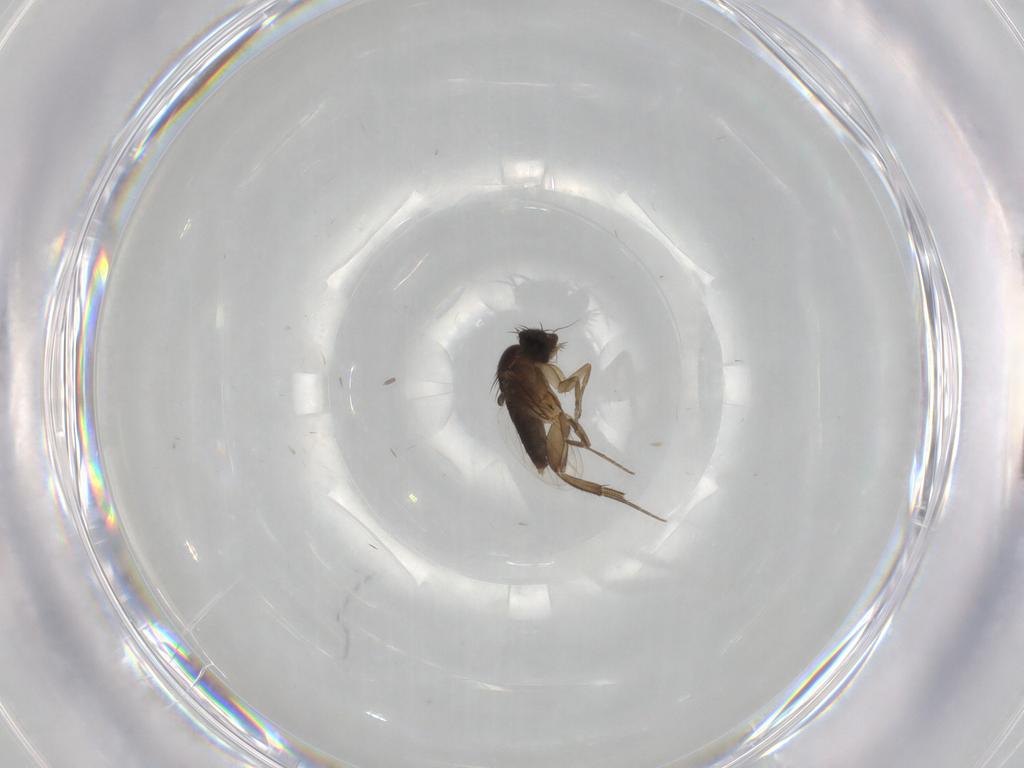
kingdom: Animalia
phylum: Arthropoda
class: Insecta
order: Diptera
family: Phoridae
